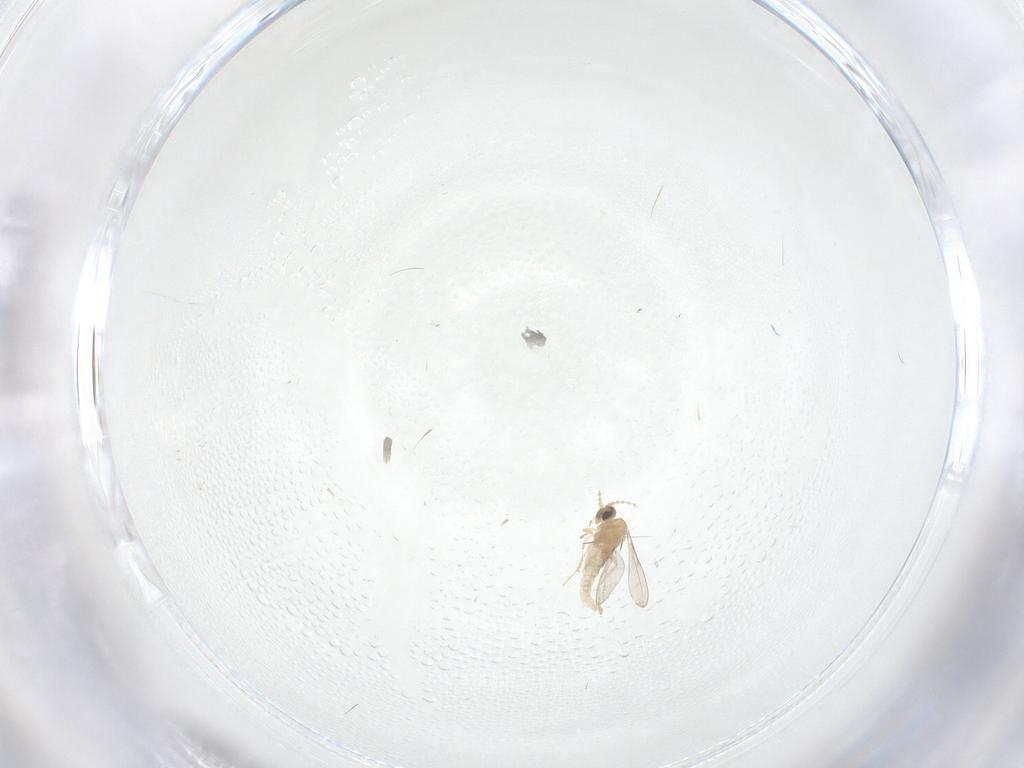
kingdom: Animalia
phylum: Arthropoda
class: Insecta
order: Diptera
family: Cecidomyiidae
